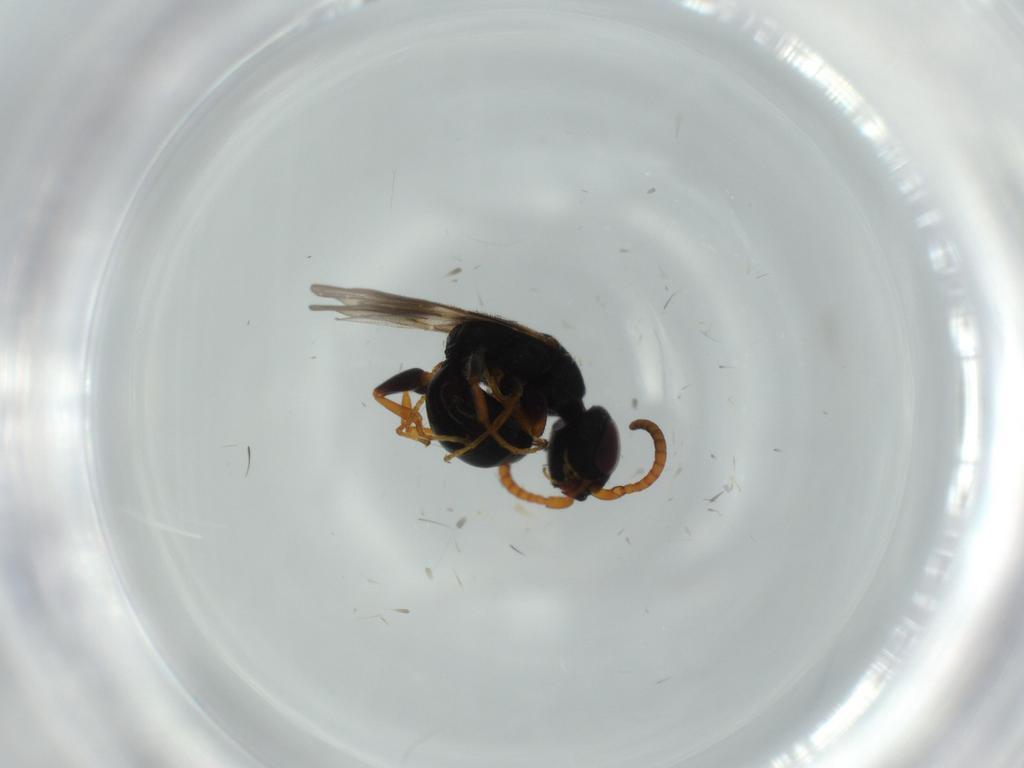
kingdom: Animalia
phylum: Arthropoda
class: Insecta
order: Hymenoptera
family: Bethylidae
